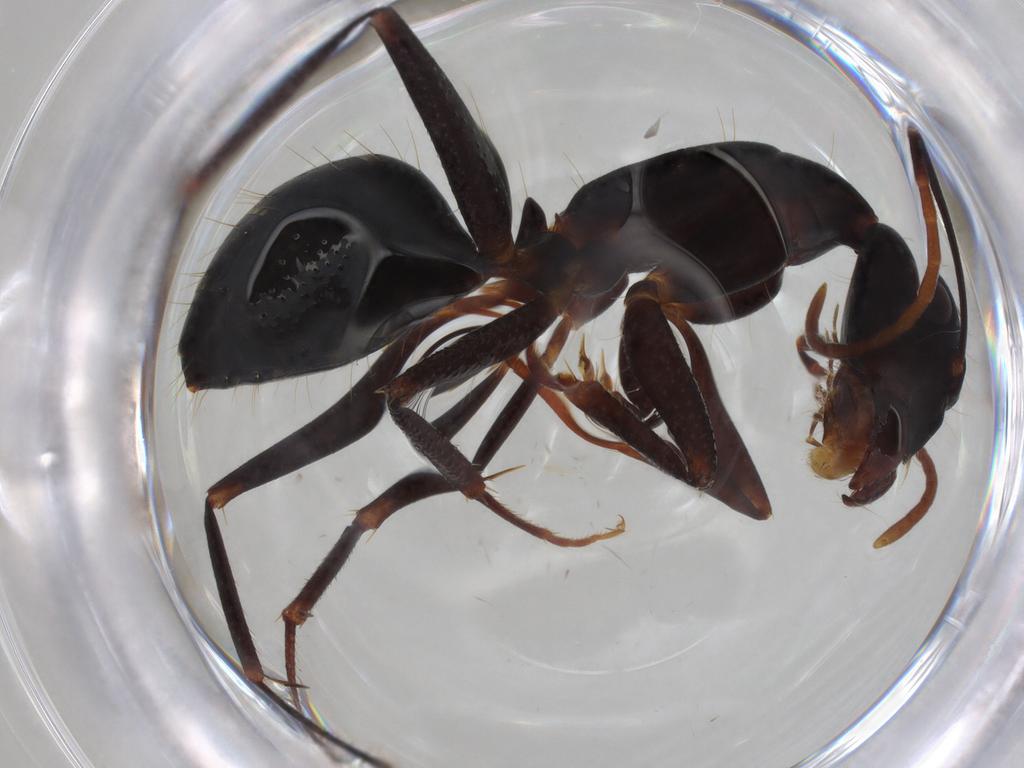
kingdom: Animalia
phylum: Arthropoda
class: Insecta
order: Hymenoptera
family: Formicidae
